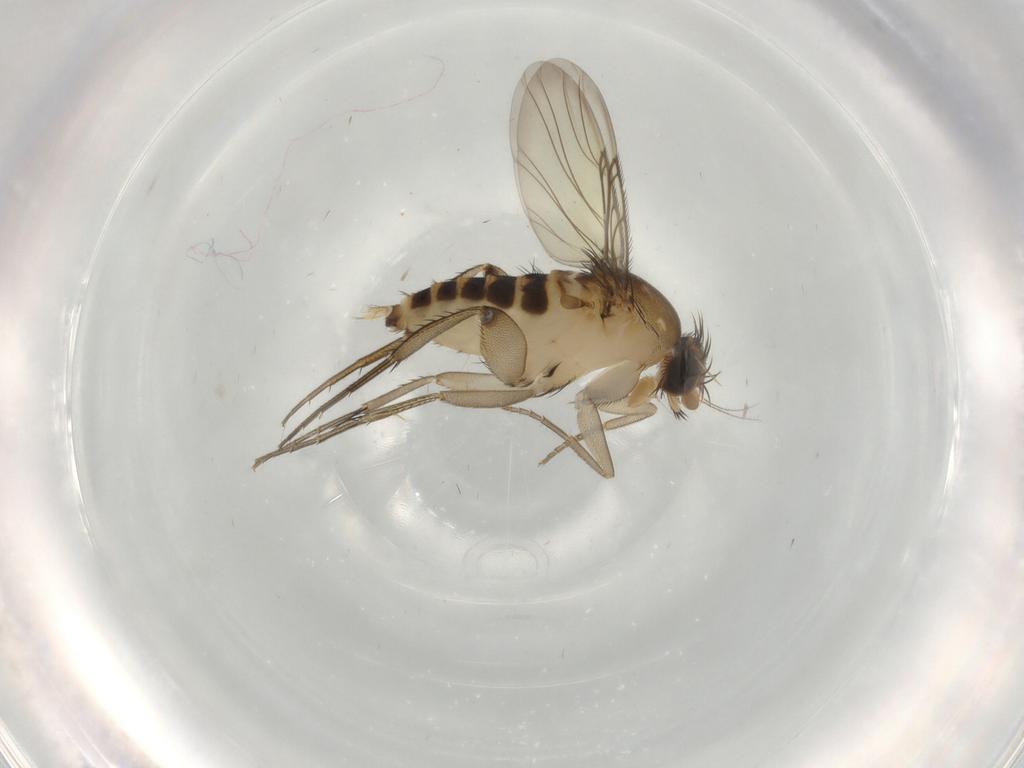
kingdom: Animalia
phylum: Arthropoda
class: Insecta
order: Diptera
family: Phoridae
